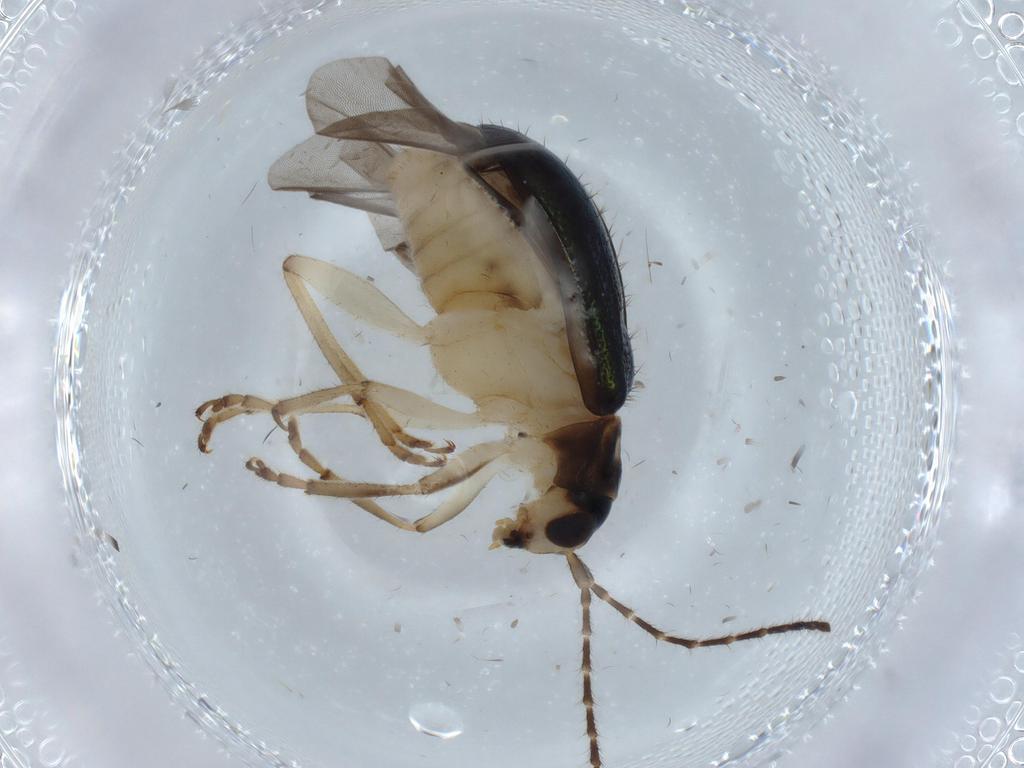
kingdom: Animalia
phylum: Arthropoda
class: Insecta
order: Coleoptera
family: Chrysomelidae
